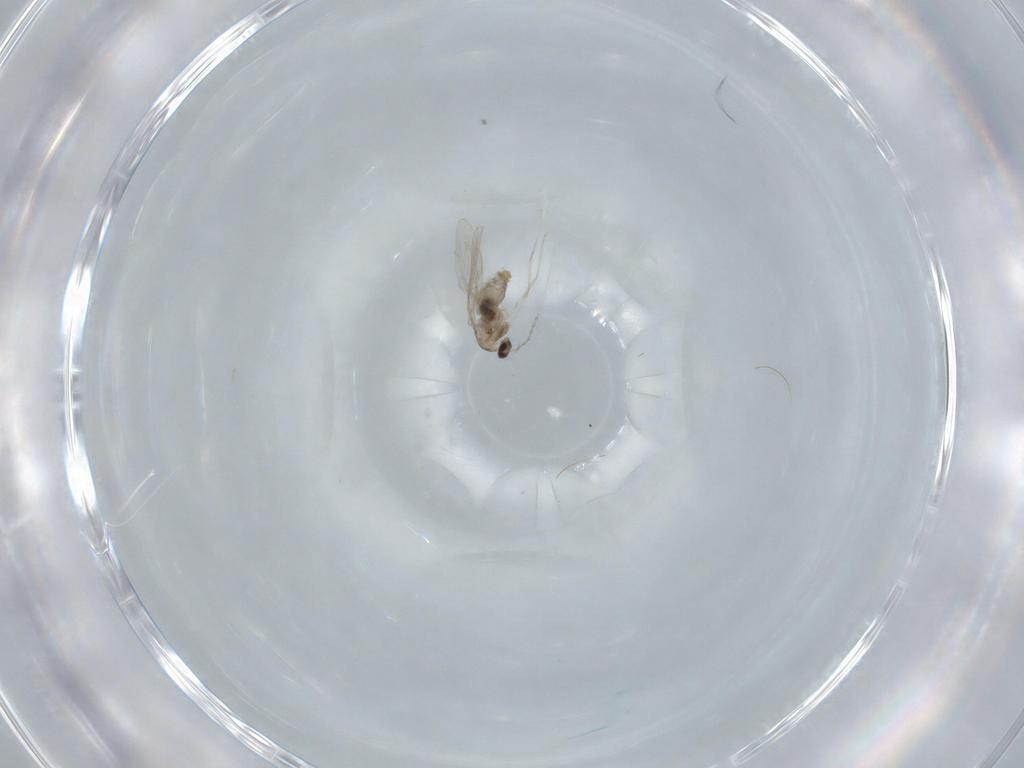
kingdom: Animalia
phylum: Arthropoda
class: Insecta
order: Diptera
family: Cecidomyiidae
